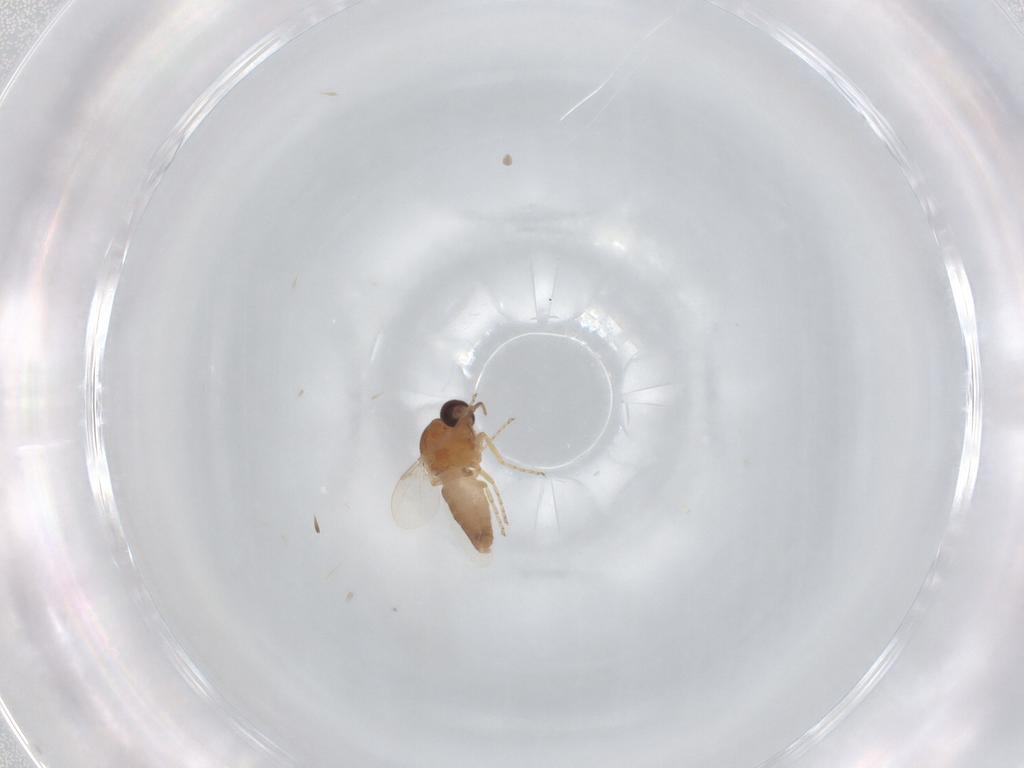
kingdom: Animalia
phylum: Arthropoda
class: Insecta
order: Diptera
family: Ceratopogonidae
